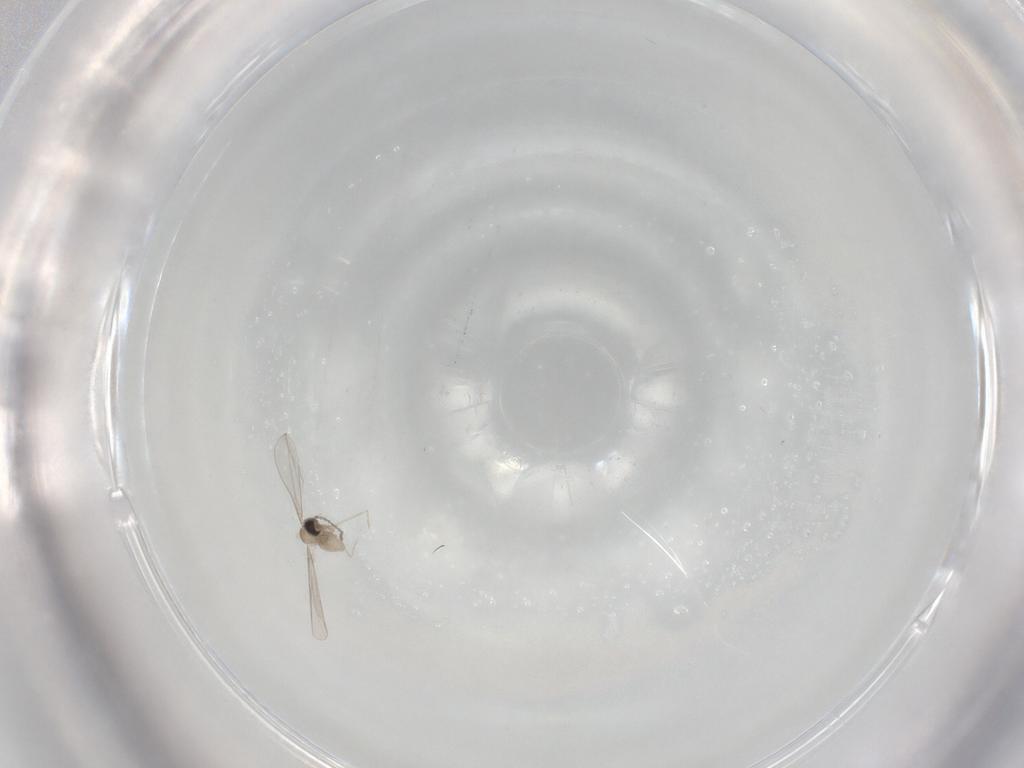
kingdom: Animalia
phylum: Arthropoda
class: Insecta
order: Diptera
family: Cecidomyiidae
